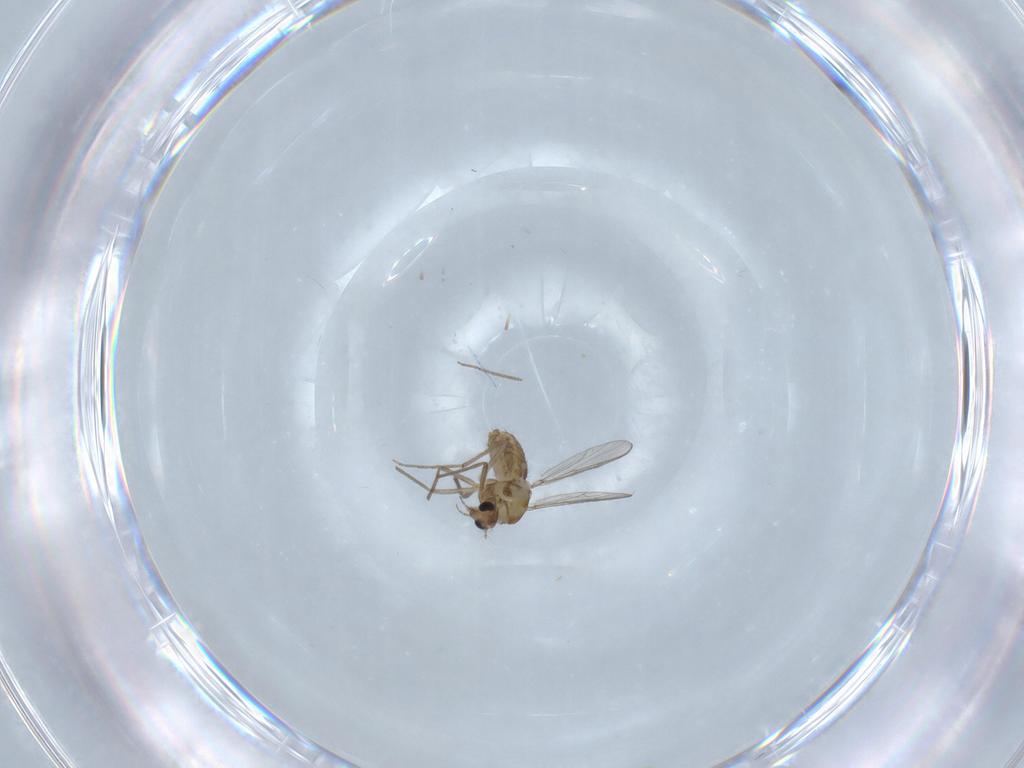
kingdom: Animalia
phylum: Arthropoda
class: Insecta
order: Diptera
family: Chironomidae
